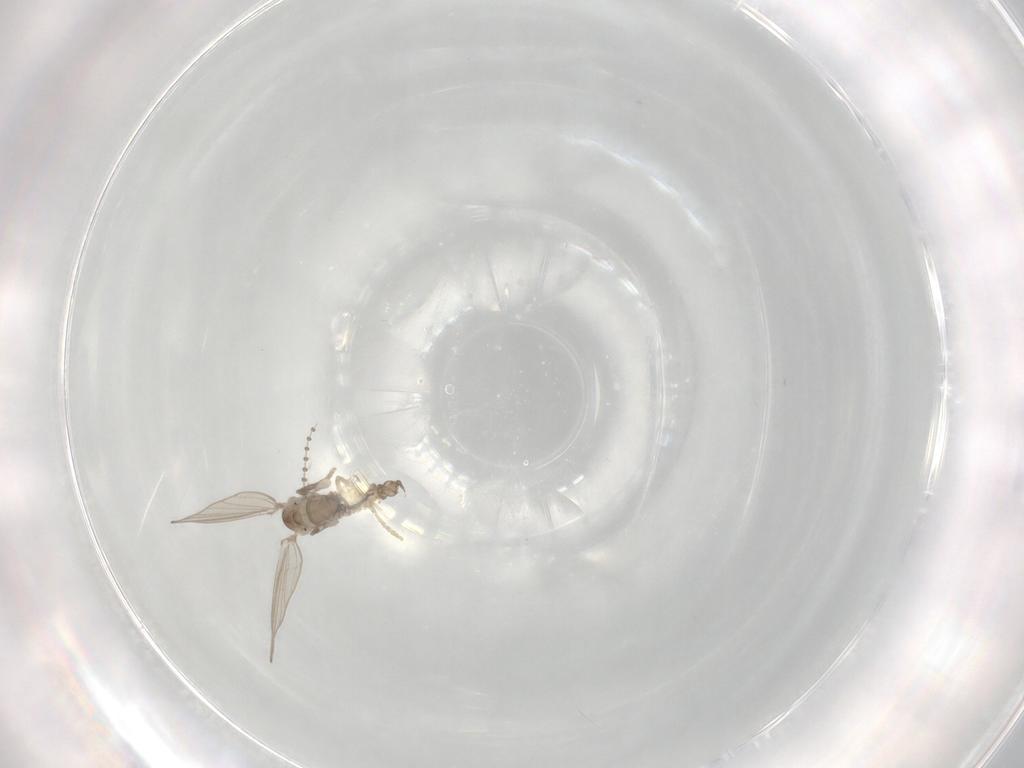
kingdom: Animalia
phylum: Arthropoda
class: Insecta
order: Diptera
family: Psychodidae
